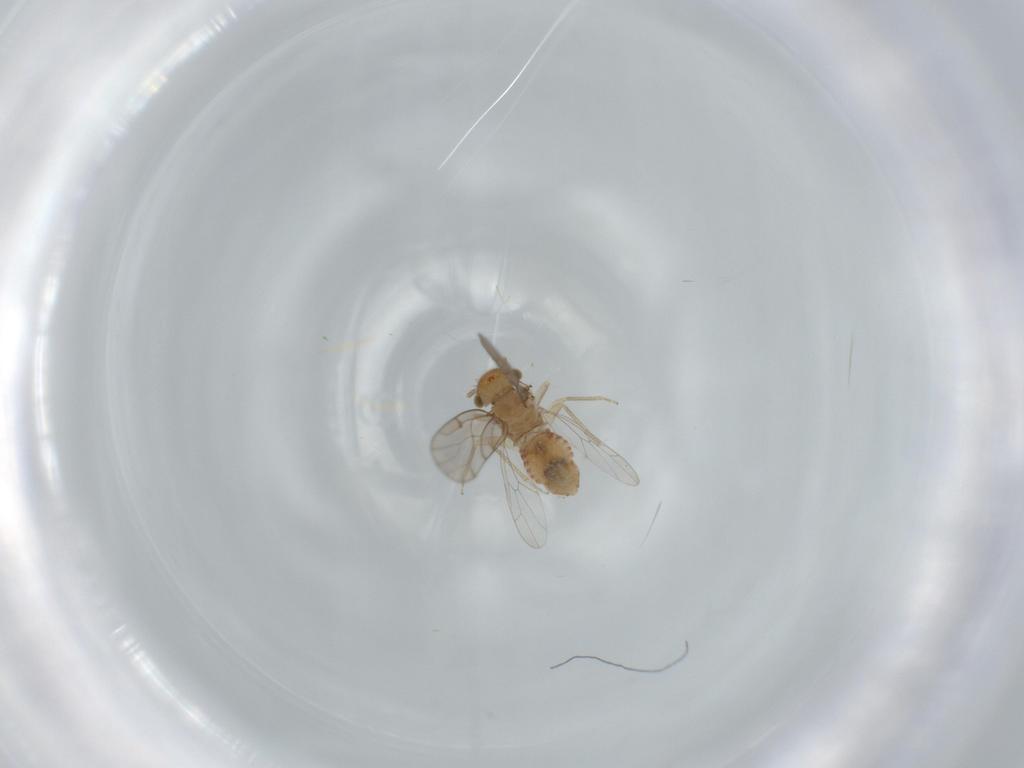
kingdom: Animalia
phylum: Arthropoda
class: Insecta
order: Psocodea
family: Ectopsocidae
